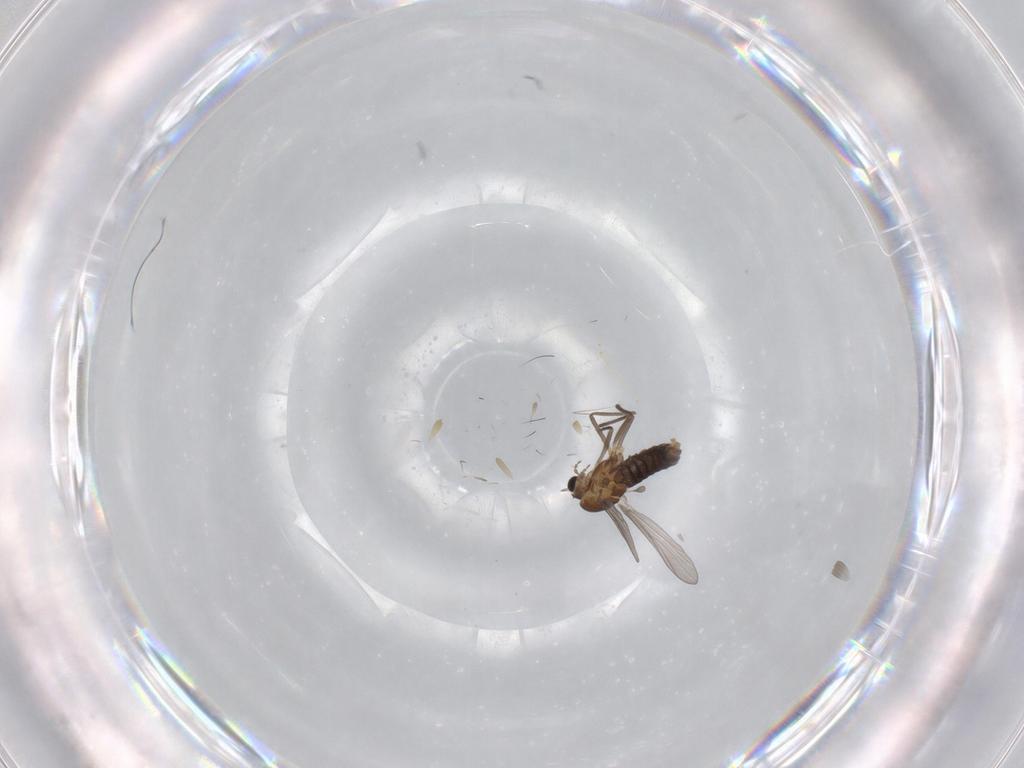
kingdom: Animalia
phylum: Arthropoda
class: Insecta
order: Diptera
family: Chironomidae
